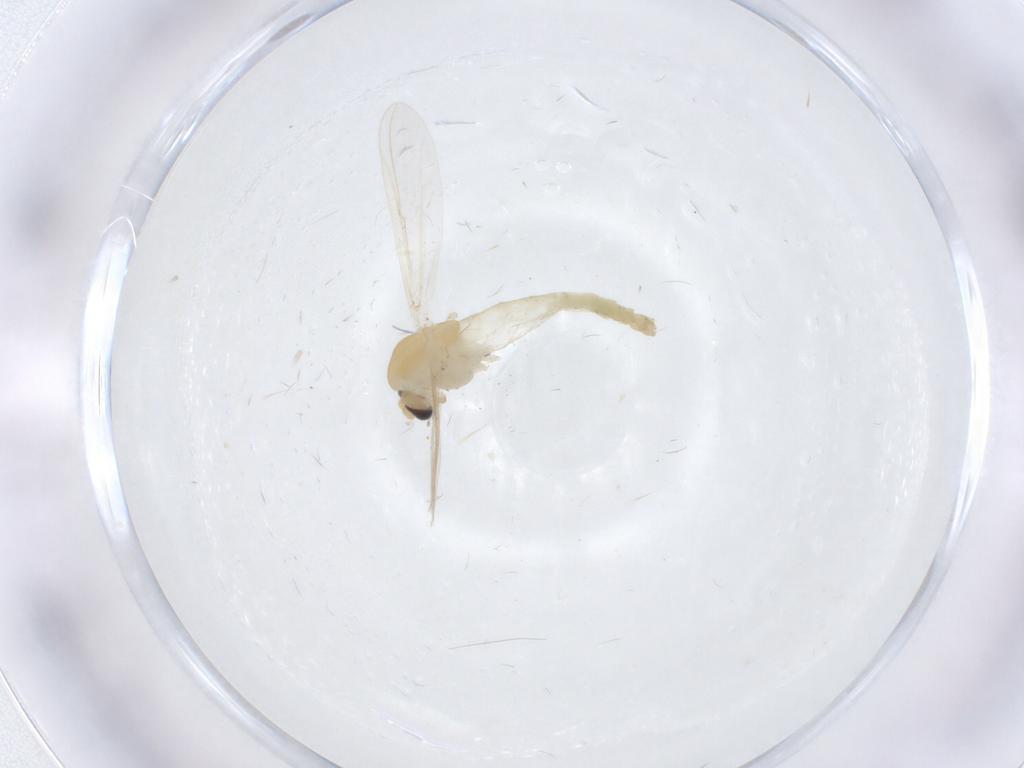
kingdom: Animalia
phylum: Arthropoda
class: Insecta
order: Diptera
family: Chironomidae
